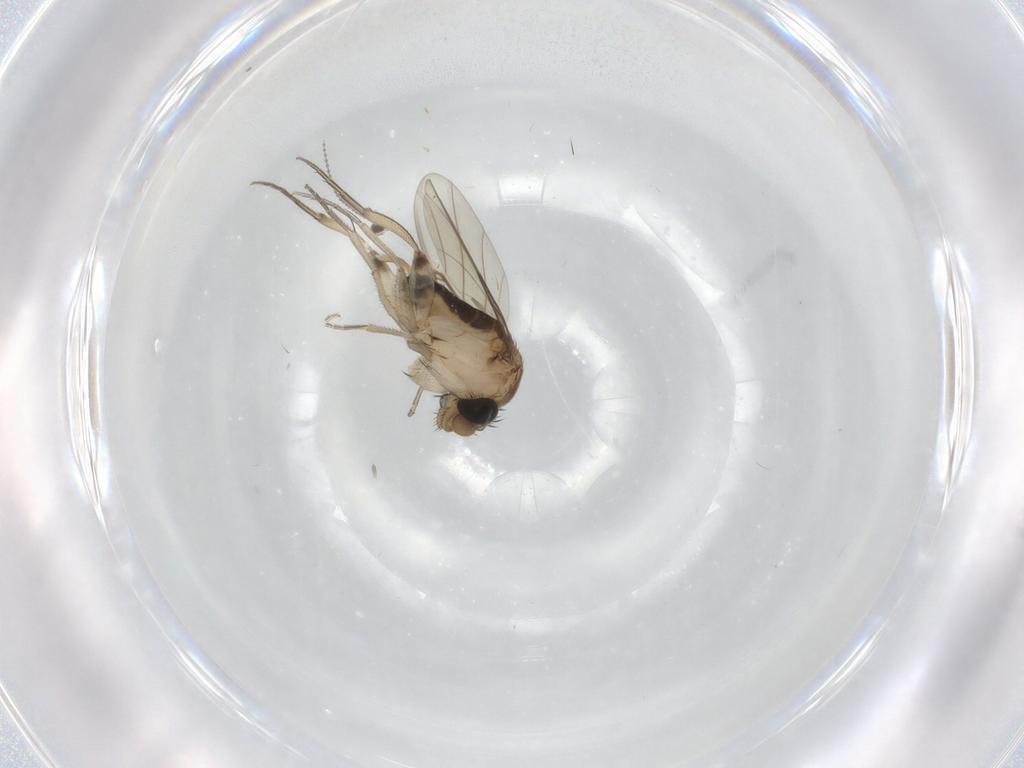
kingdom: Animalia
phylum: Arthropoda
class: Insecta
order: Diptera
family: Phoridae
